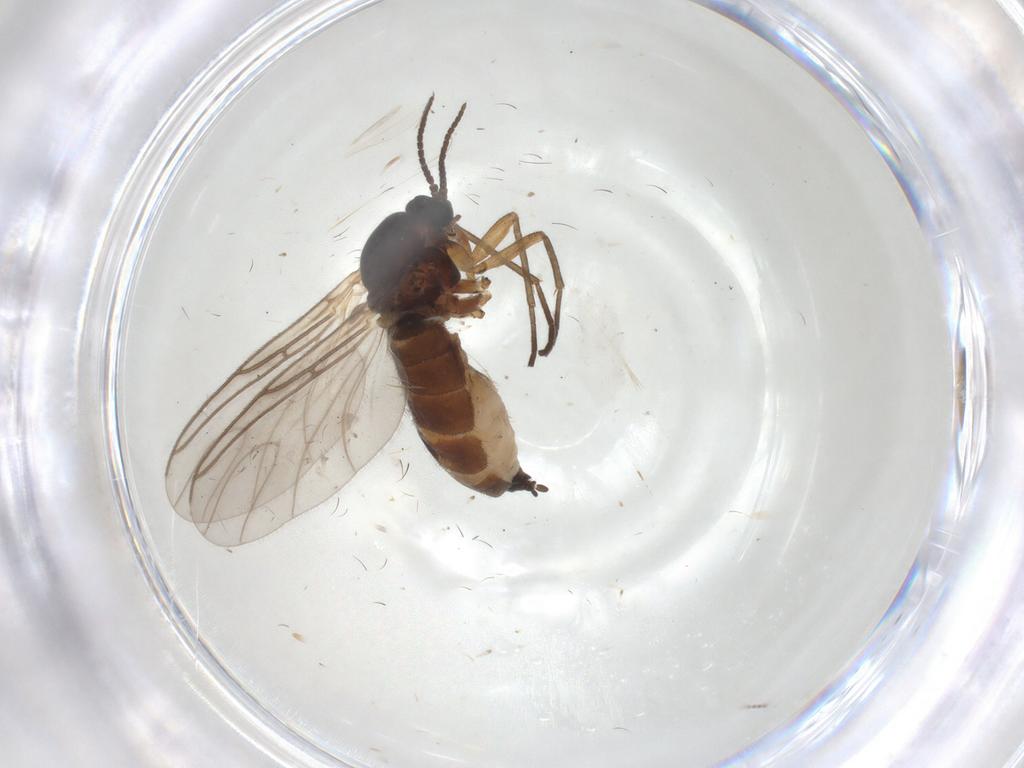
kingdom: Animalia
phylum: Arthropoda
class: Insecta
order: Diptera
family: Sciaridae
